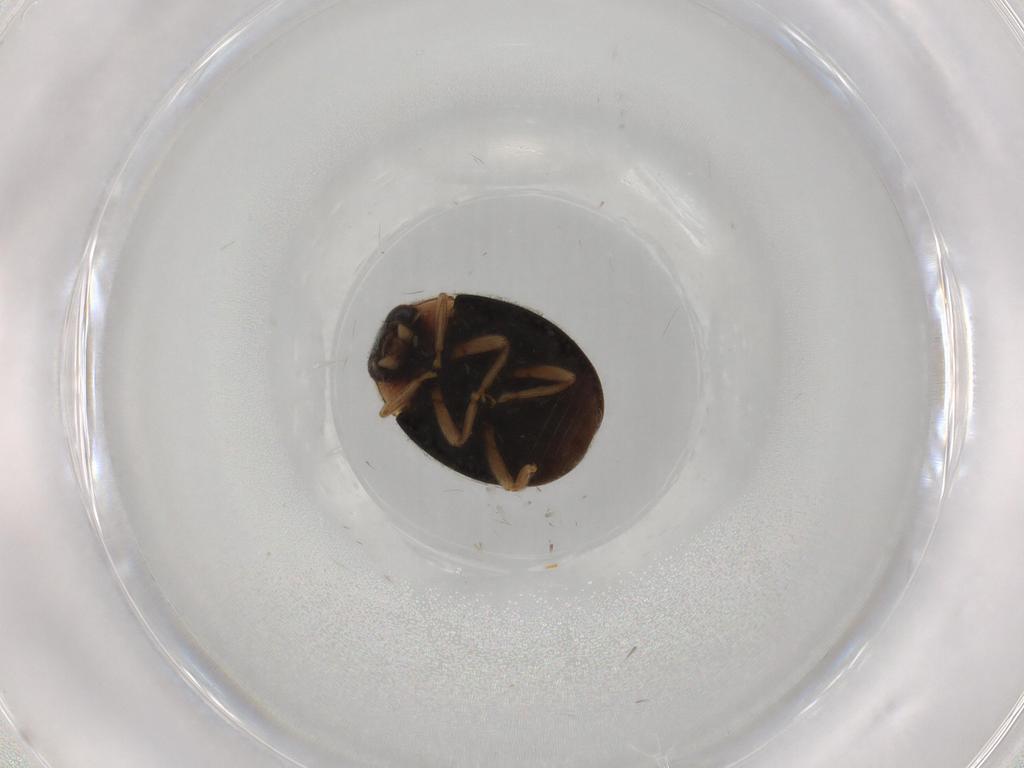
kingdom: Animalia
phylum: Arthropoda
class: Insecta
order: Coleoptera
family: Coccinellidae
